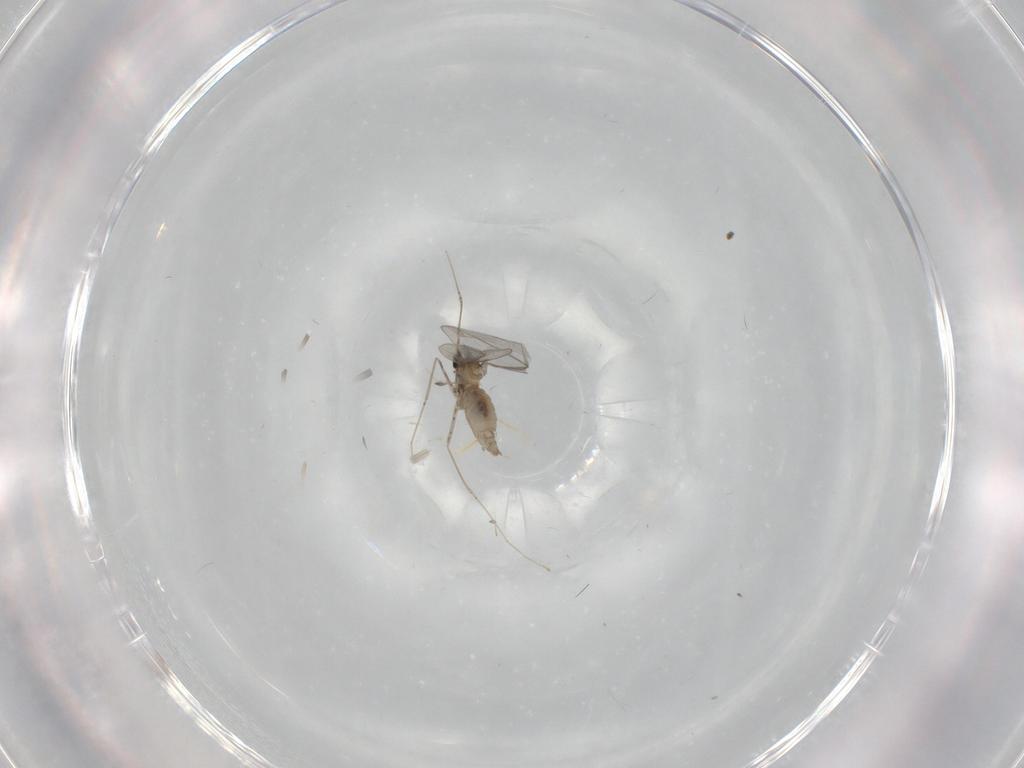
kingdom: Animalia
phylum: Arthropoda
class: Insecta
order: Diptera
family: Cecidomyiidae
